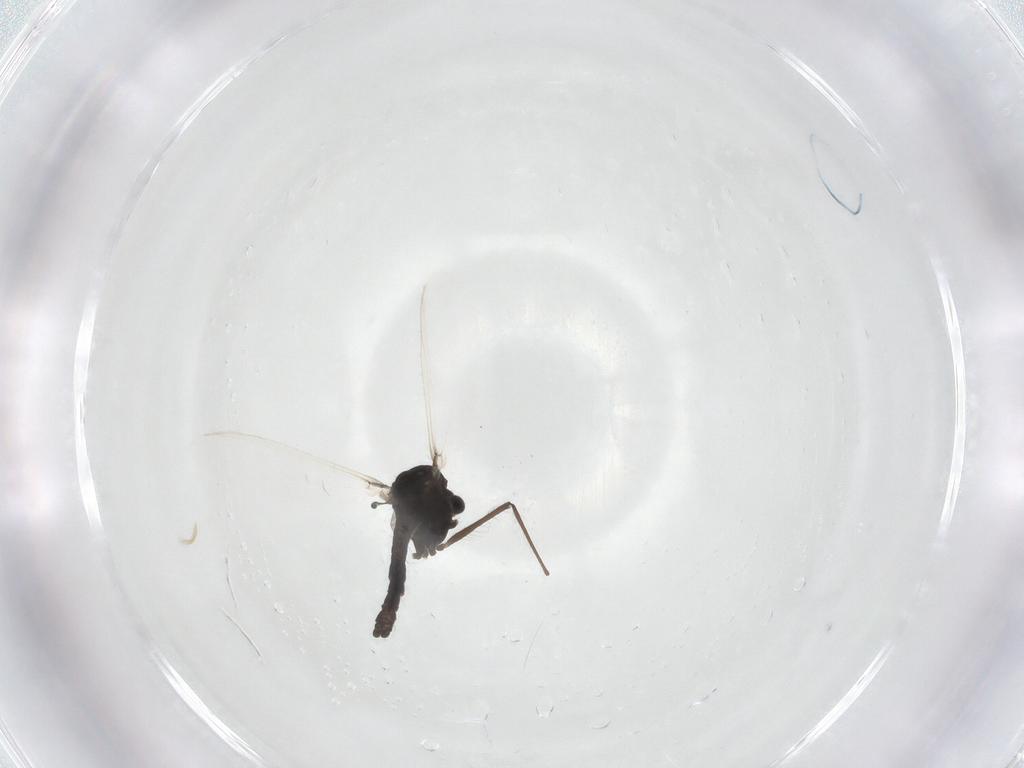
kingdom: Animalia
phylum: Arthropoda
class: Insecta
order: Diptera
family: Chironomidae
